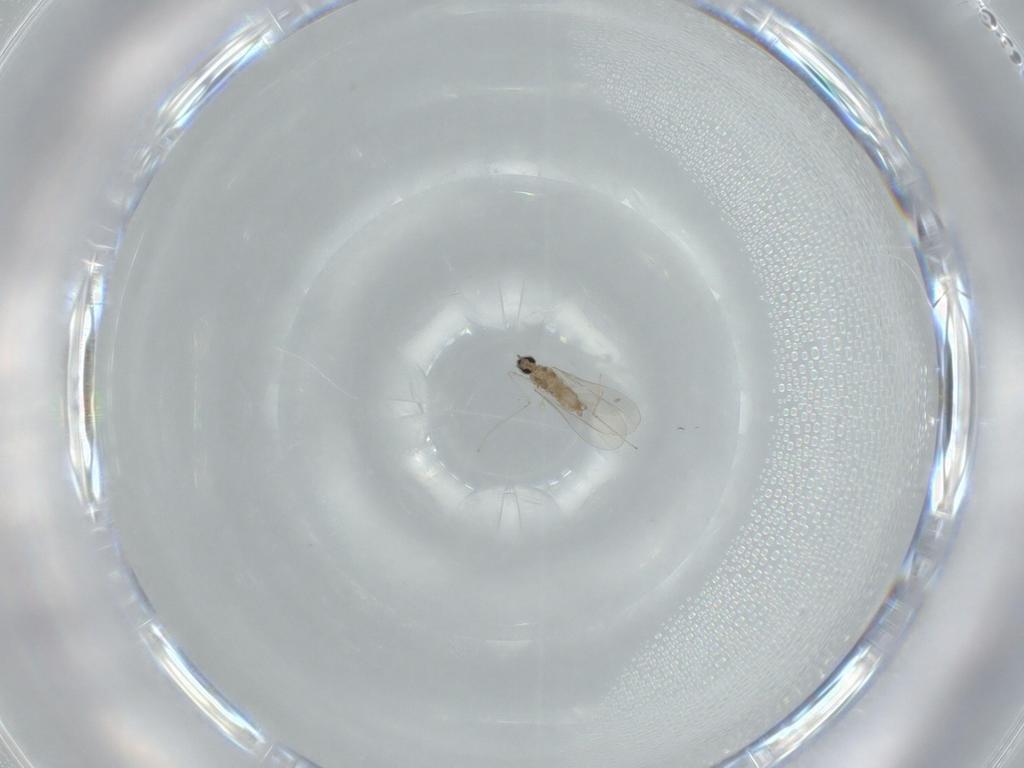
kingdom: Animalia
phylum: Arthropoda
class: Insecta
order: Diptera
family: Cecidomyiidae
